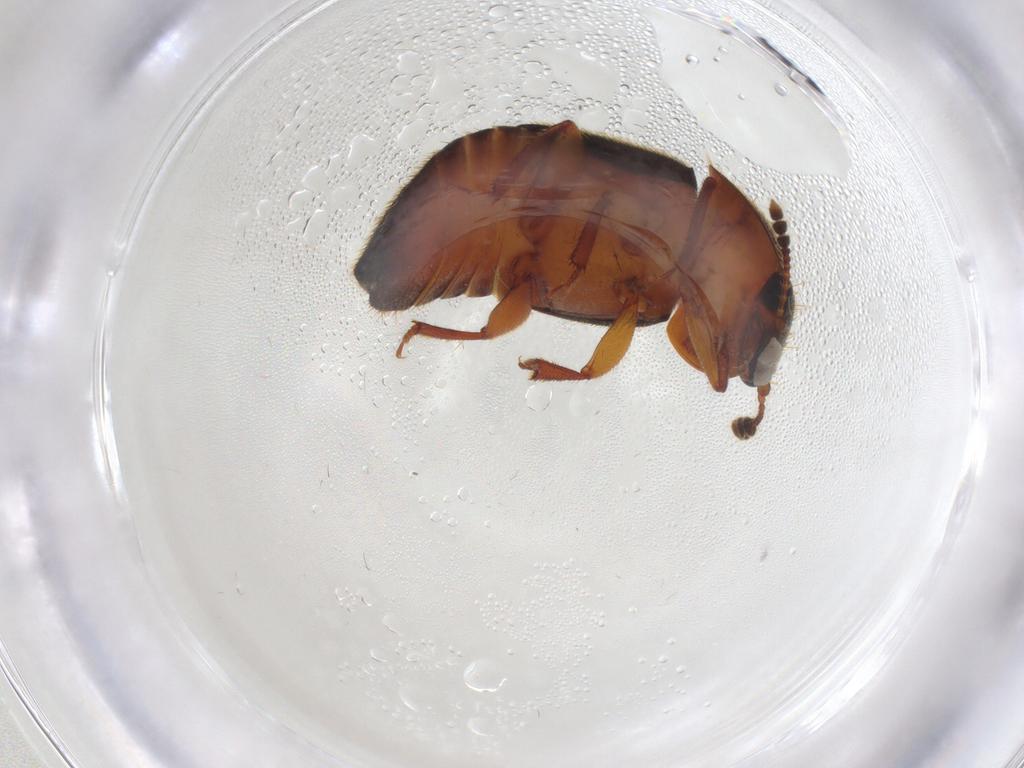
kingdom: Animalia
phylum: Arthropoda
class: Insecta
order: Coleoptera
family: Nitidulidae
